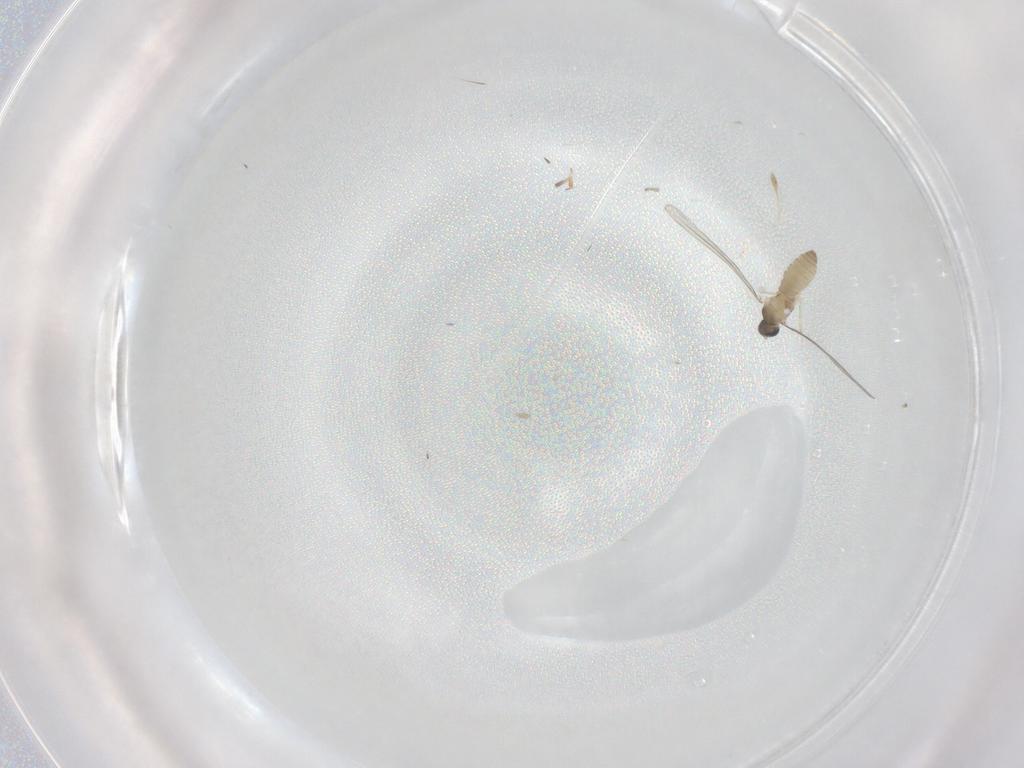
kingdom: Animalia
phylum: Arthropoda
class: Insecta
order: Diptera
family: Cecidomyiidae
